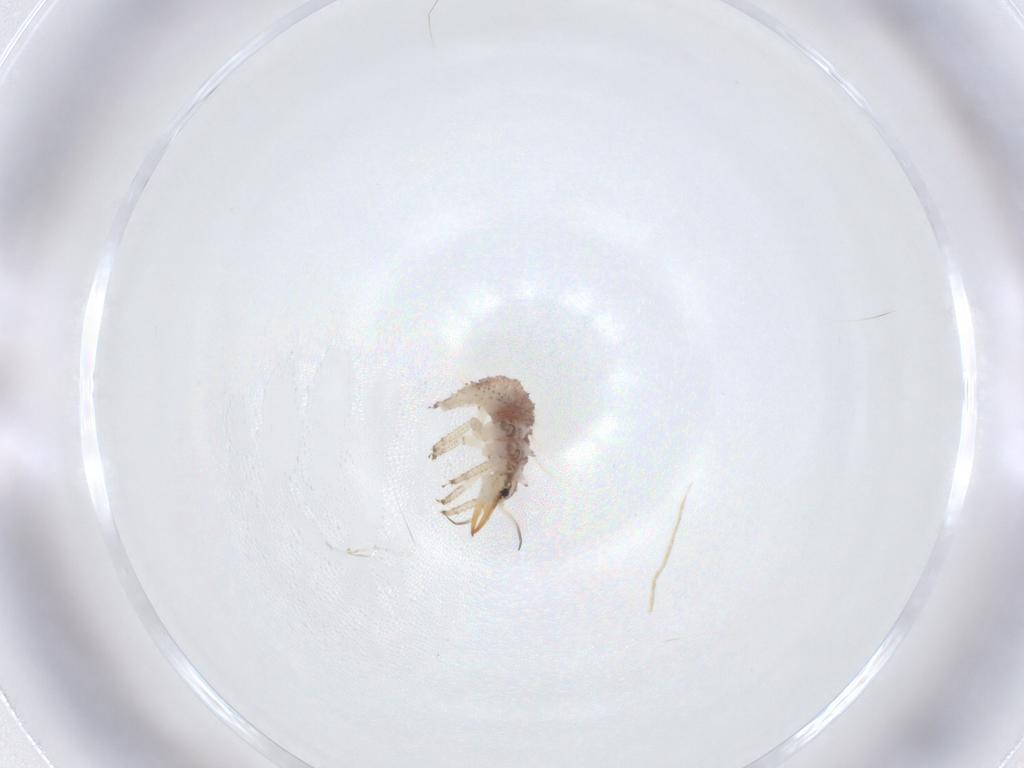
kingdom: Animalia
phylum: Arthropoda
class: Insecta
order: Neuroptera
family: Chrysopidae
